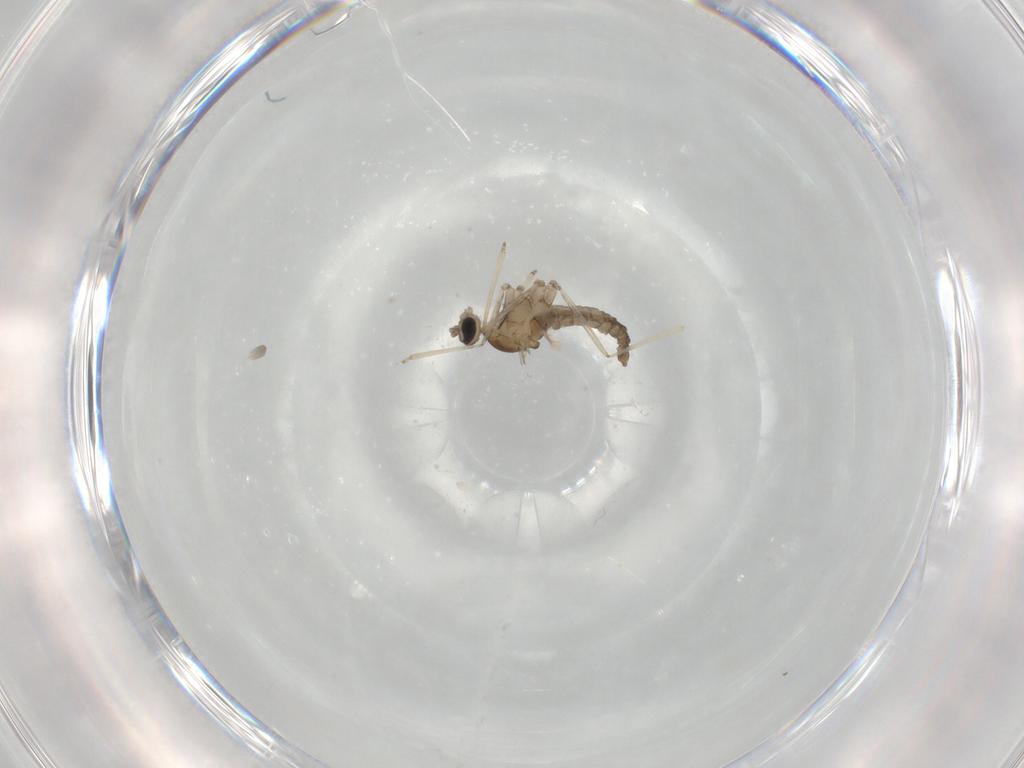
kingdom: Animalia
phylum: Arthropoda
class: Insecta
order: Diptera
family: Cecidomyiidae
